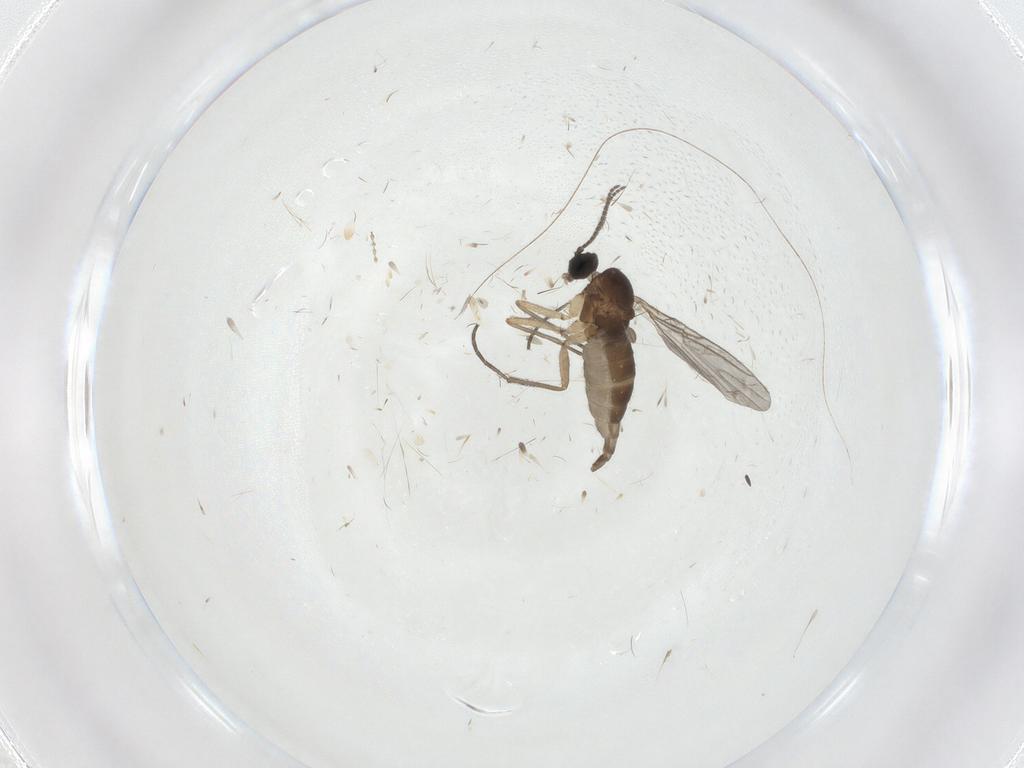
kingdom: Animalia
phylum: Arthropoda
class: Insecta
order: Diptera
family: Sciaridae
